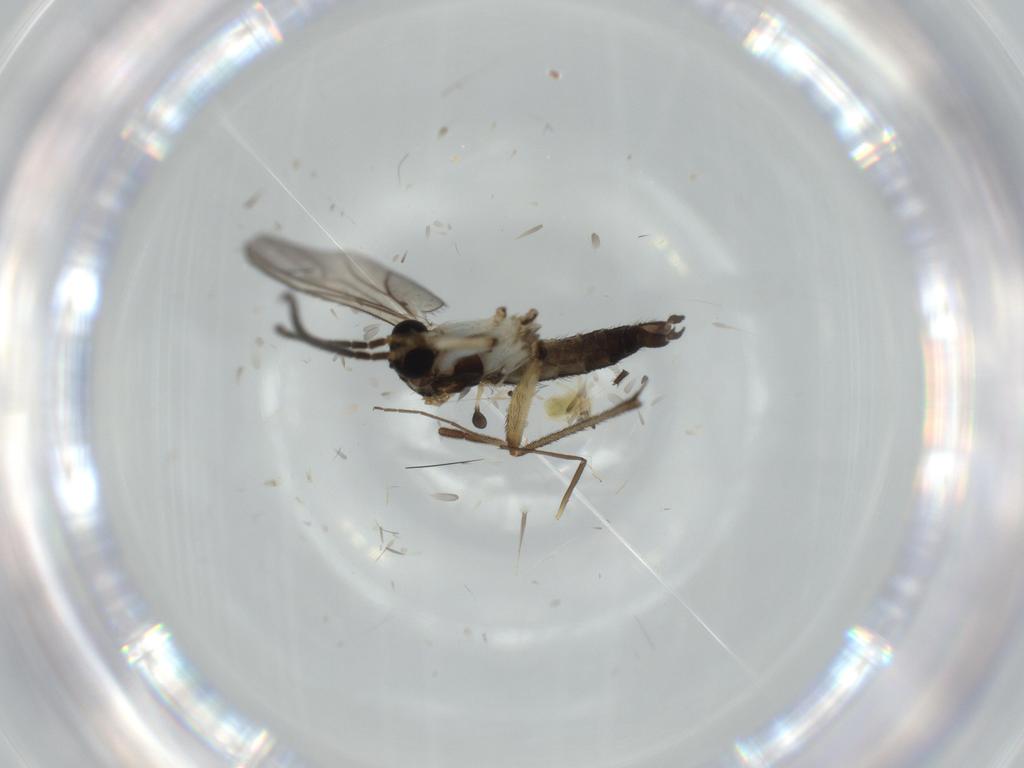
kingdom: Animalia
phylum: Arthropoda
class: Insecta
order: Diptera
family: Sciaridae
